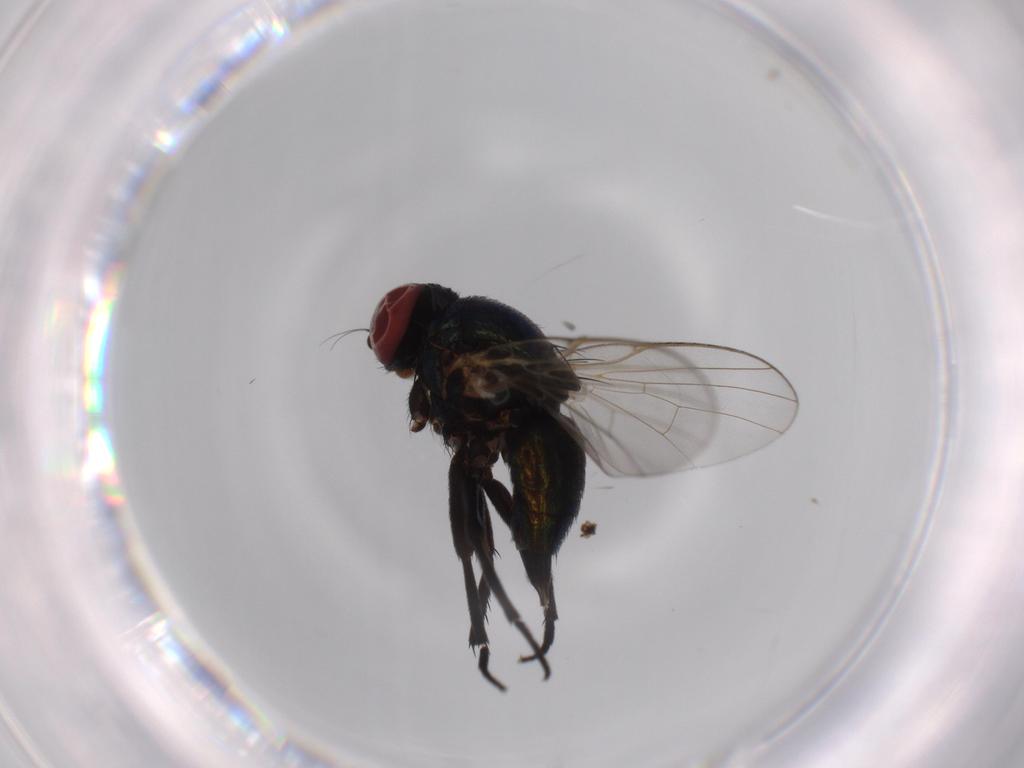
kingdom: Animalia
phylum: Arthropoda
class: Insecta
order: Diptera
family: Agromyzidae
